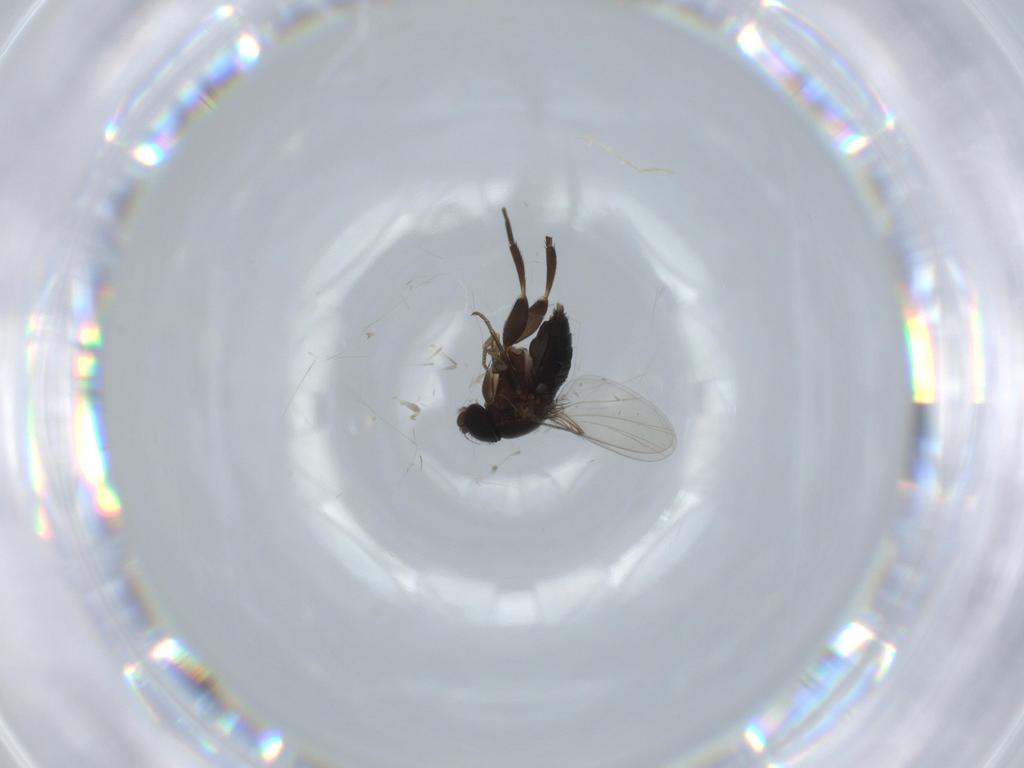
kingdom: Animalia
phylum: Arthropoda
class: Insecta
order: Diptera
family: Phoridae
